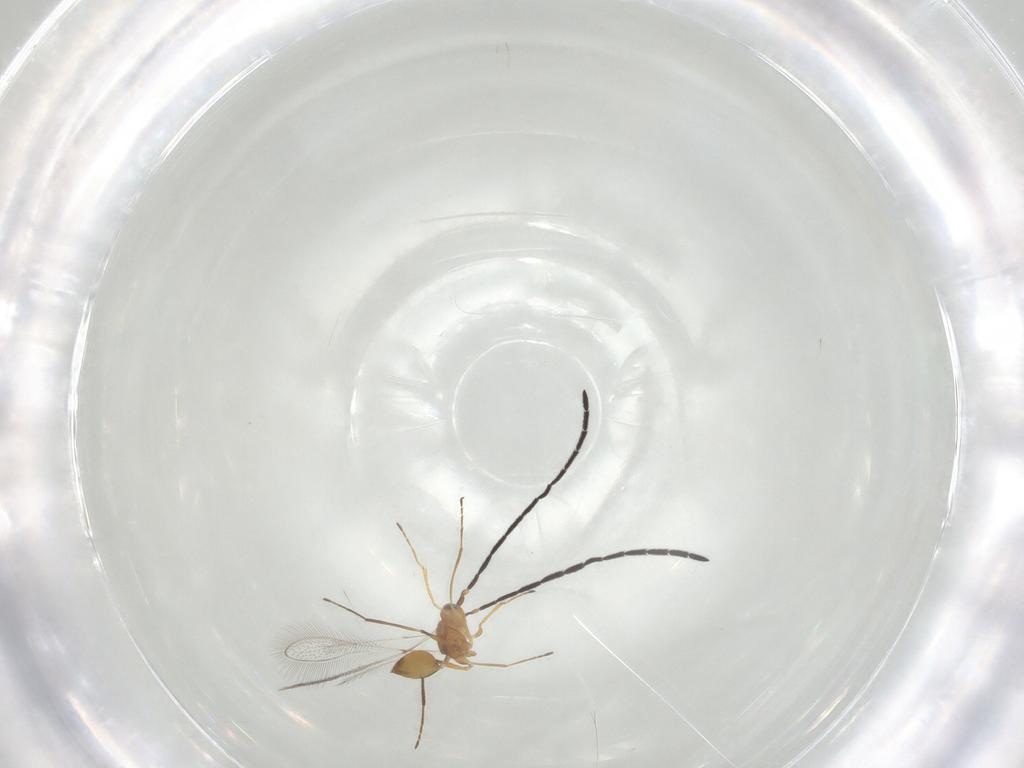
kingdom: Animalia
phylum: Arthropoda
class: Insecta
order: Hymenoptera
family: Mymaridae
